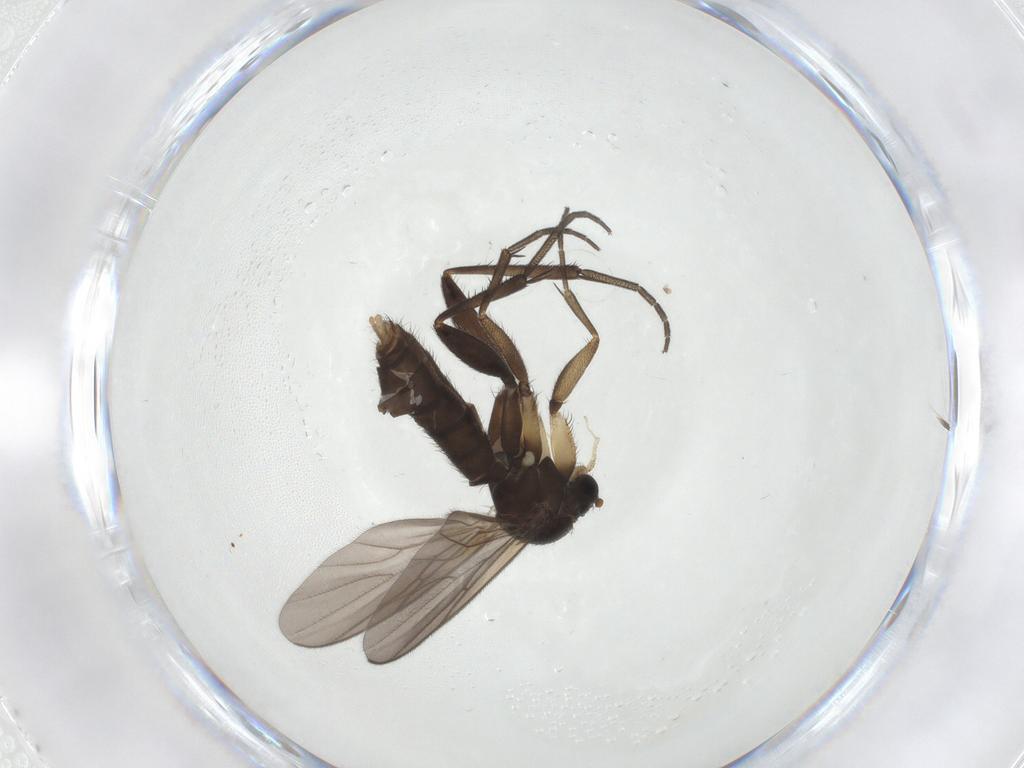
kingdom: Animalia
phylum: Arthropoda
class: Insecta
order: Diptera
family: Mycetophilidae
